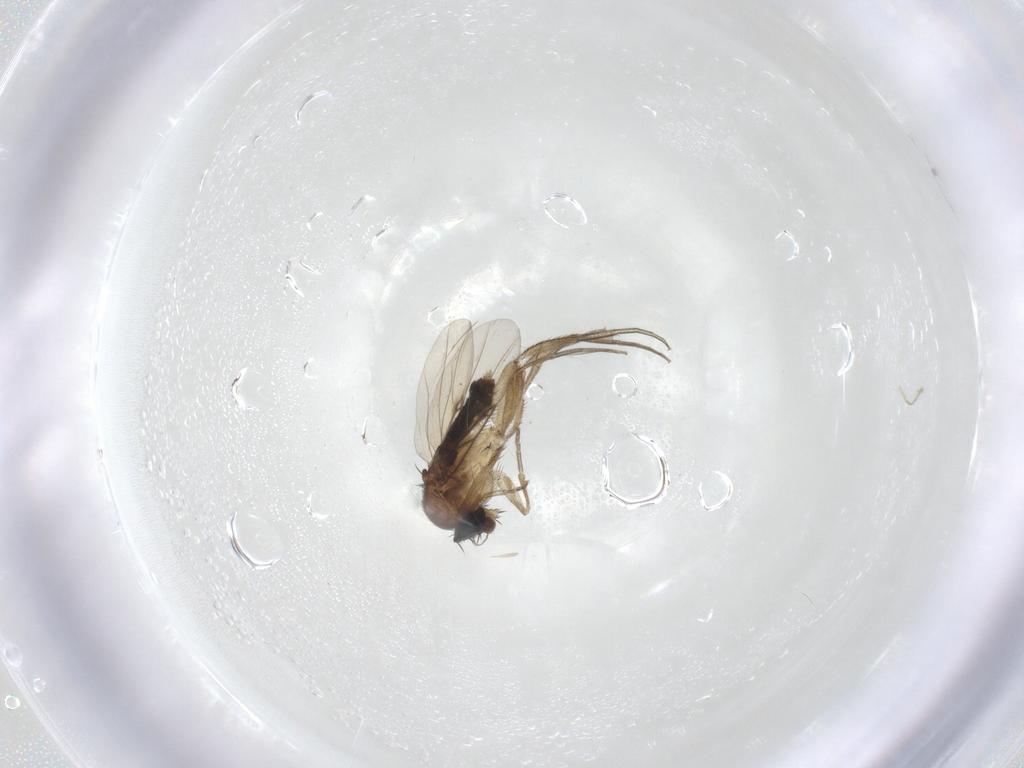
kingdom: Animalia
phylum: Arthropoda
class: Insecta
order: Diptera
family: Phoridae
